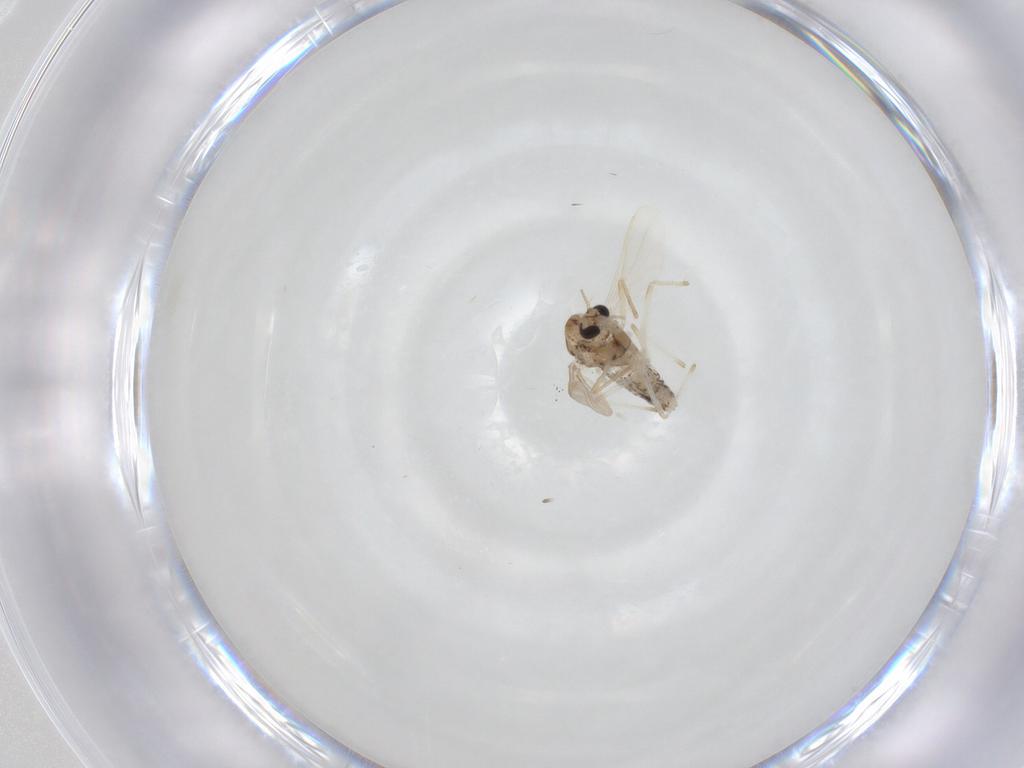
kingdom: Animalia
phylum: Arthropoda
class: Insecta
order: Diptera
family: Chironomidae
